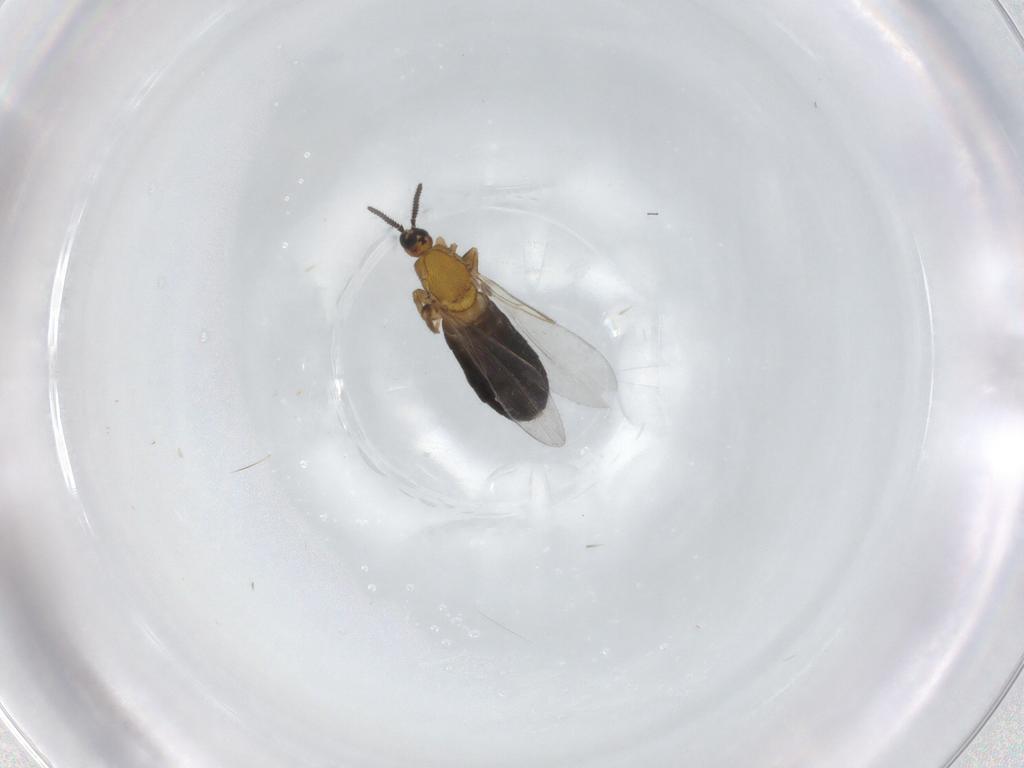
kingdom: Animalia
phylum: Arthropoda
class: Insecta
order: Diptera
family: Scatopsidae
